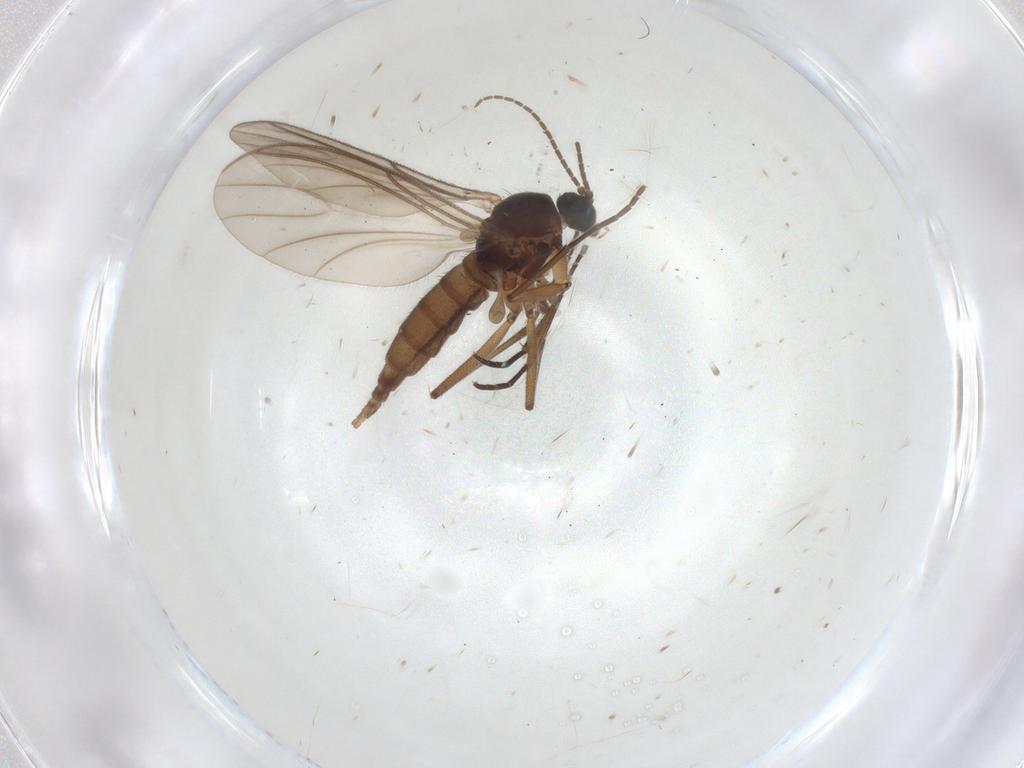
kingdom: Animalia
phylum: Arthropoda
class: Insecta
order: Diptera
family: Sciaridae
